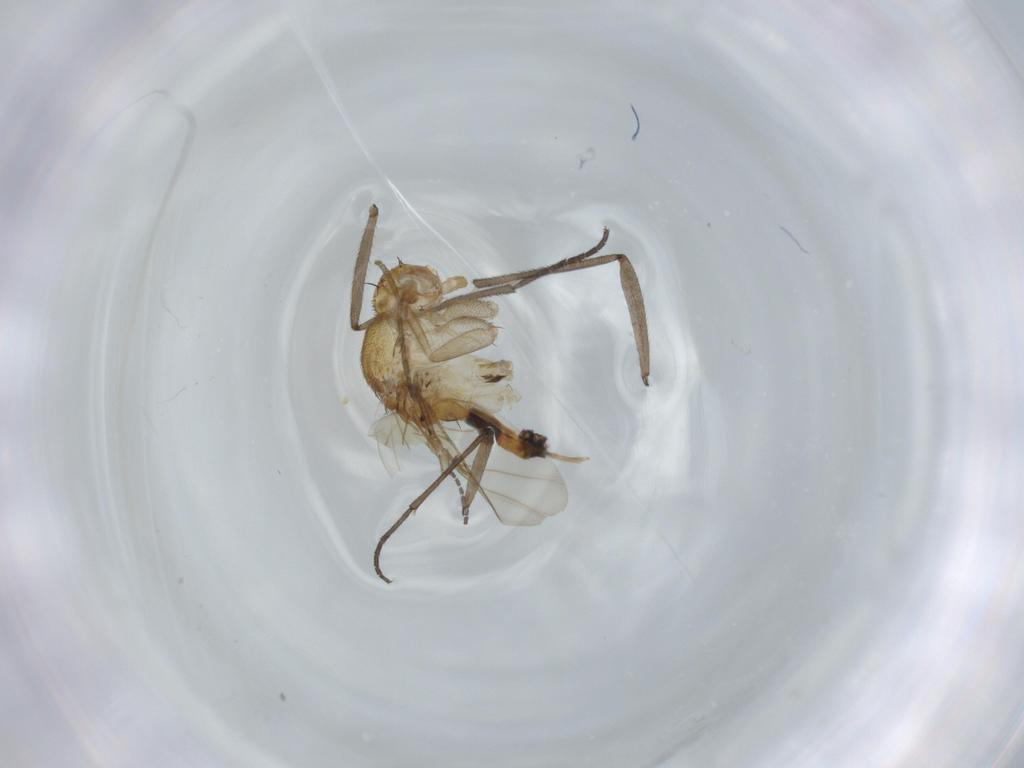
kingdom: Animalia
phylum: Arthropoda
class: Insecta
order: Diptera
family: Sciaridae
